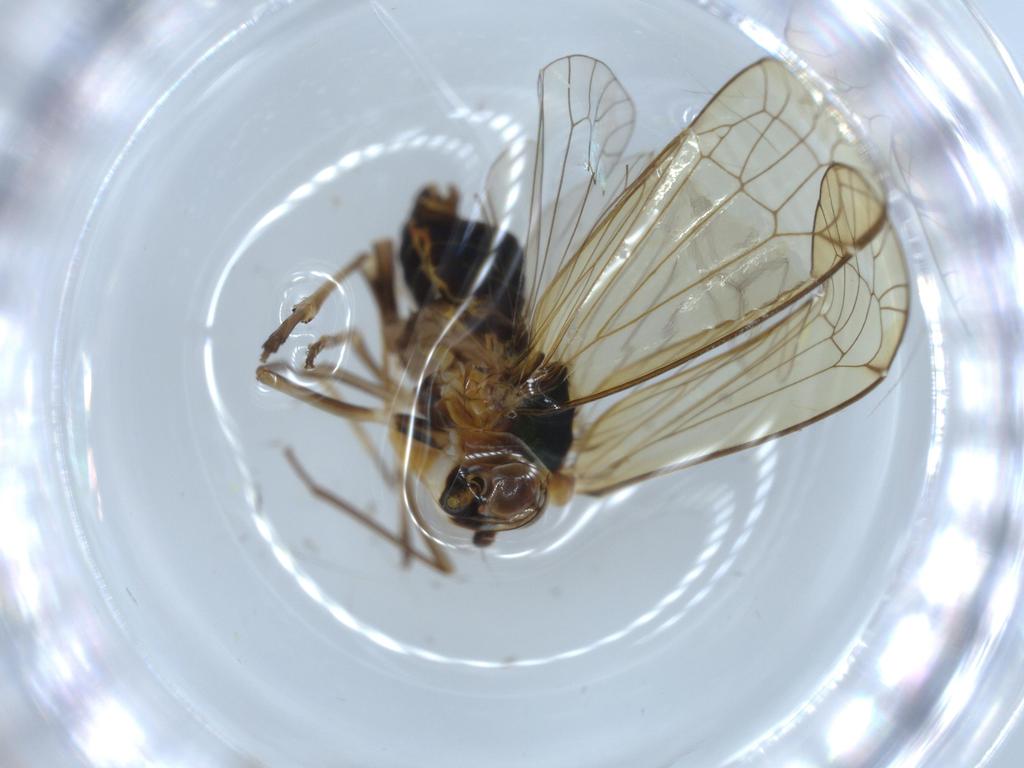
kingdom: Animalia
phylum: Arthropoda
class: Insecta
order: Hemiptera
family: Kinnaridae
